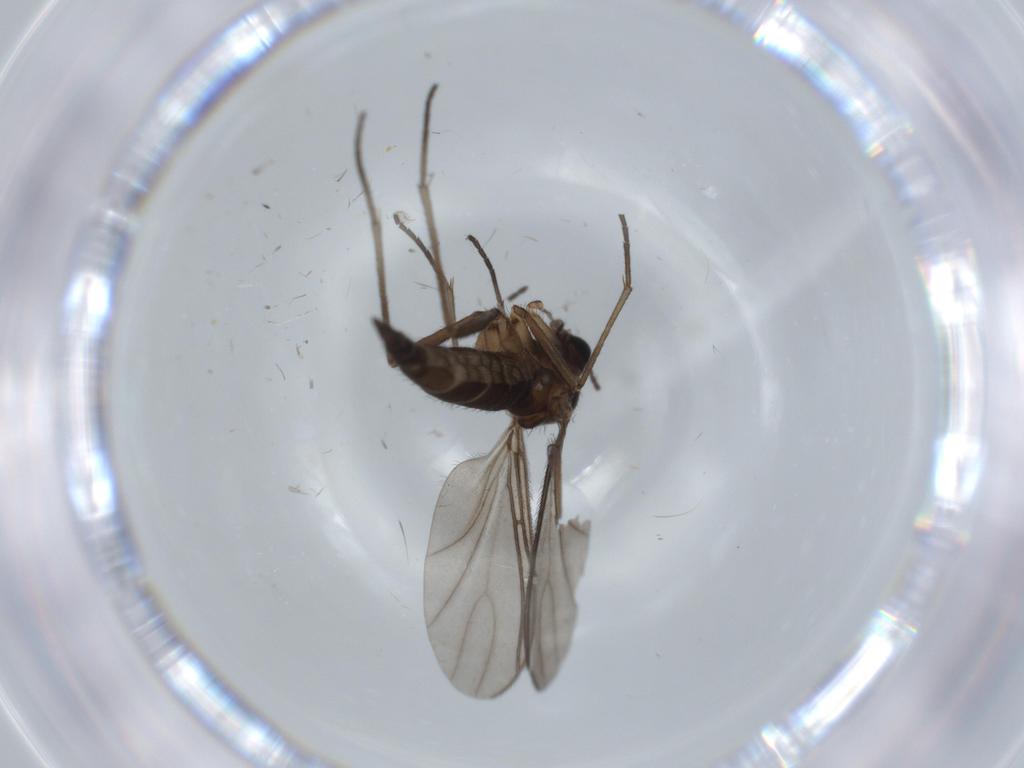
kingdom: Animalia
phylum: Arthropoda
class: Insecta
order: Diptera
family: Sciaridae
